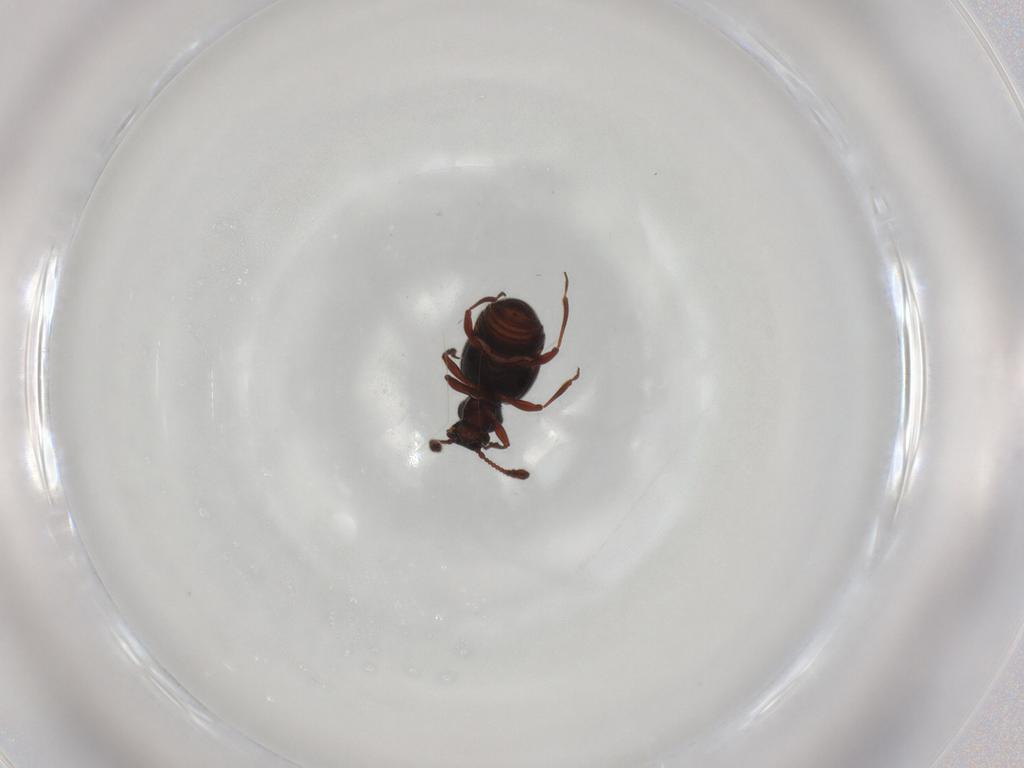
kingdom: Animalia
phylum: Arthropoda
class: Insecta
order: Coleoptera
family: Staphylinidae
